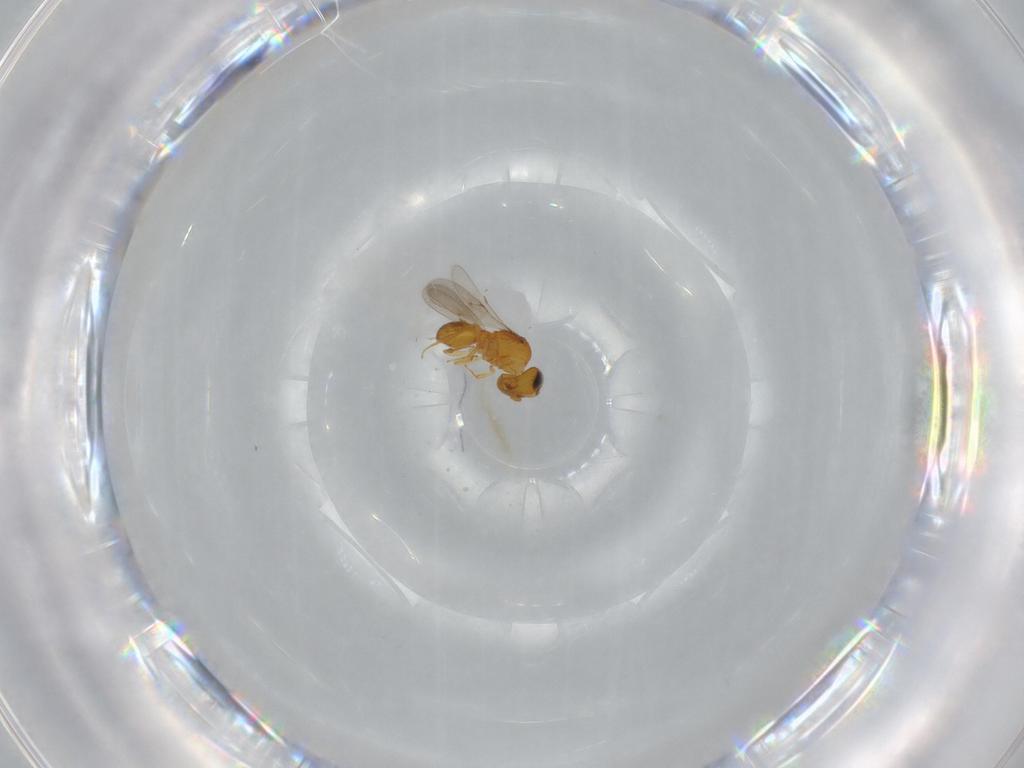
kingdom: Animalia
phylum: Arthropoda
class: Insecta
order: Hymenoptera
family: Scelionidae
